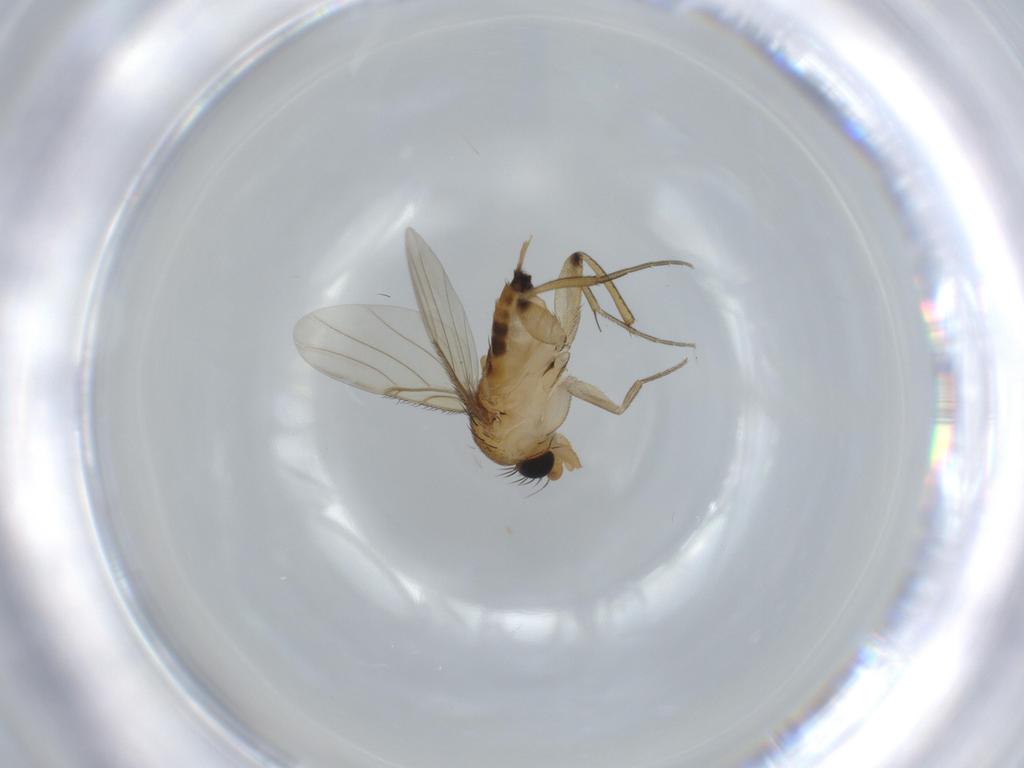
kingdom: Animalia
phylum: Arthropoda
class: Insecta
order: Diptera
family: Phoridae
